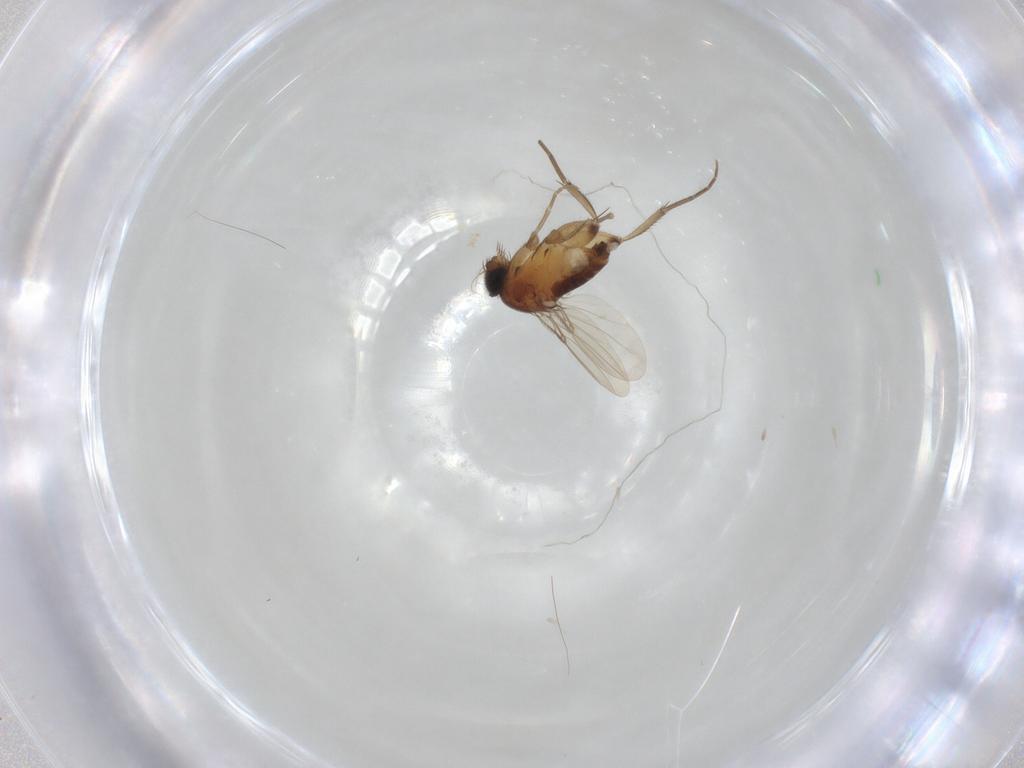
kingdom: Animalia
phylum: Arthropoda
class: Insecta
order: Diptera
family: Phoridae
